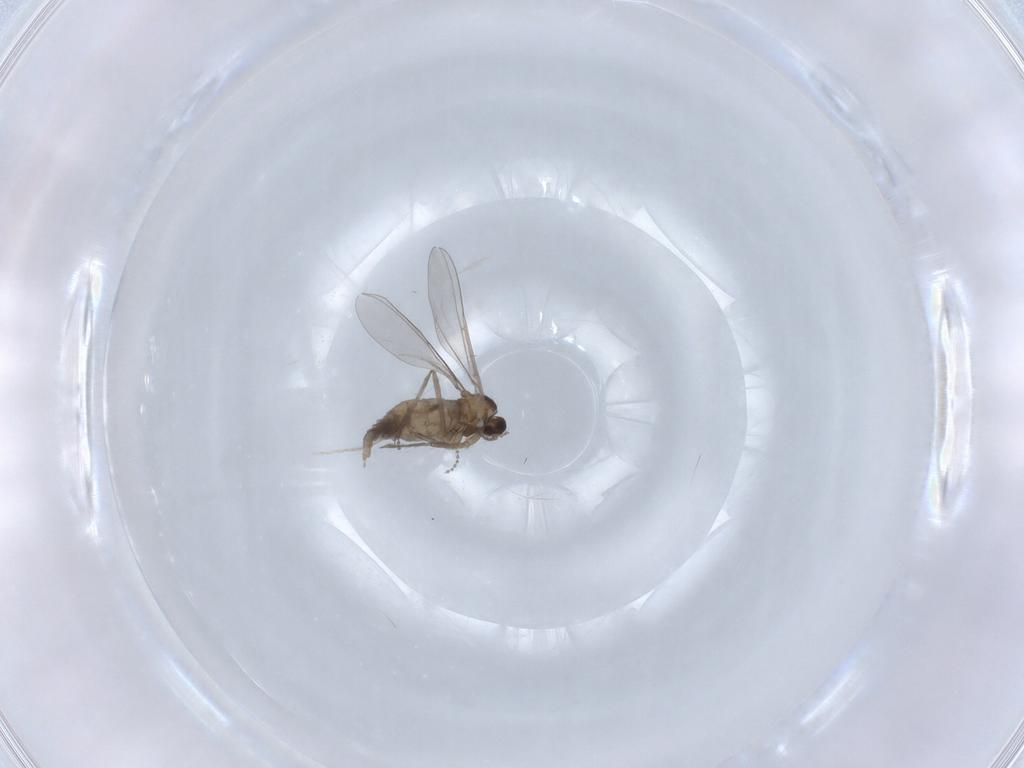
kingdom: Animalia
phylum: Arthropoda
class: Insecta
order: Diptera
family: Cecidomyiidae
